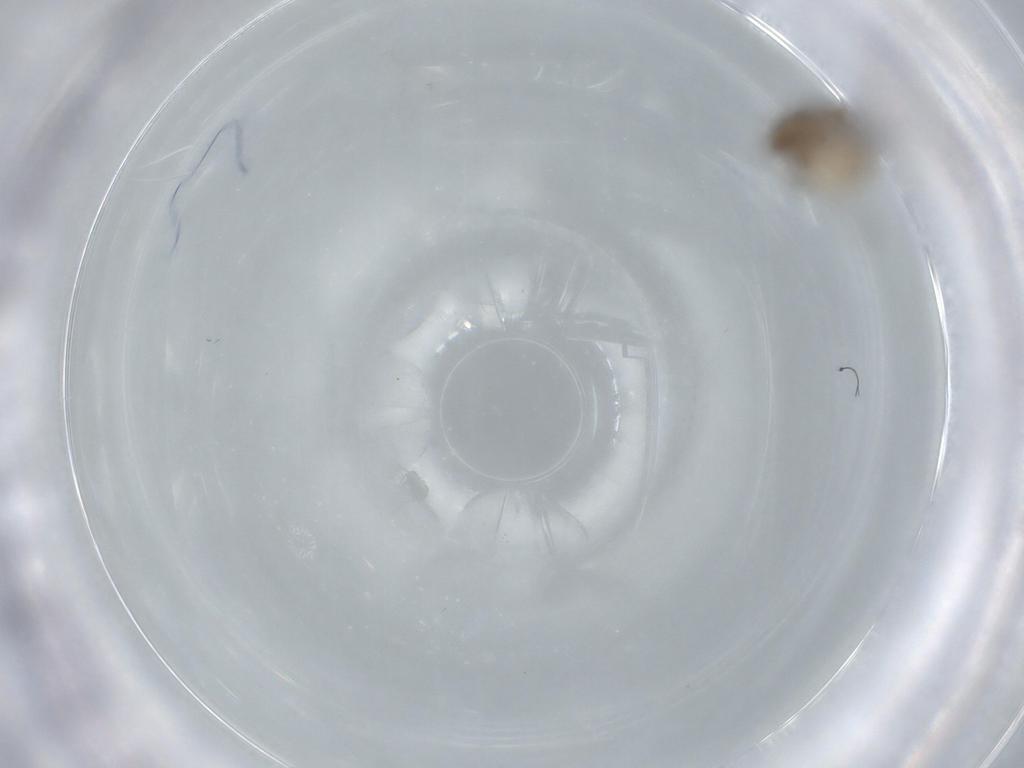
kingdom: Animalia
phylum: Arthropoda
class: Insecta
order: Psocodea
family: Ectopsocidae
